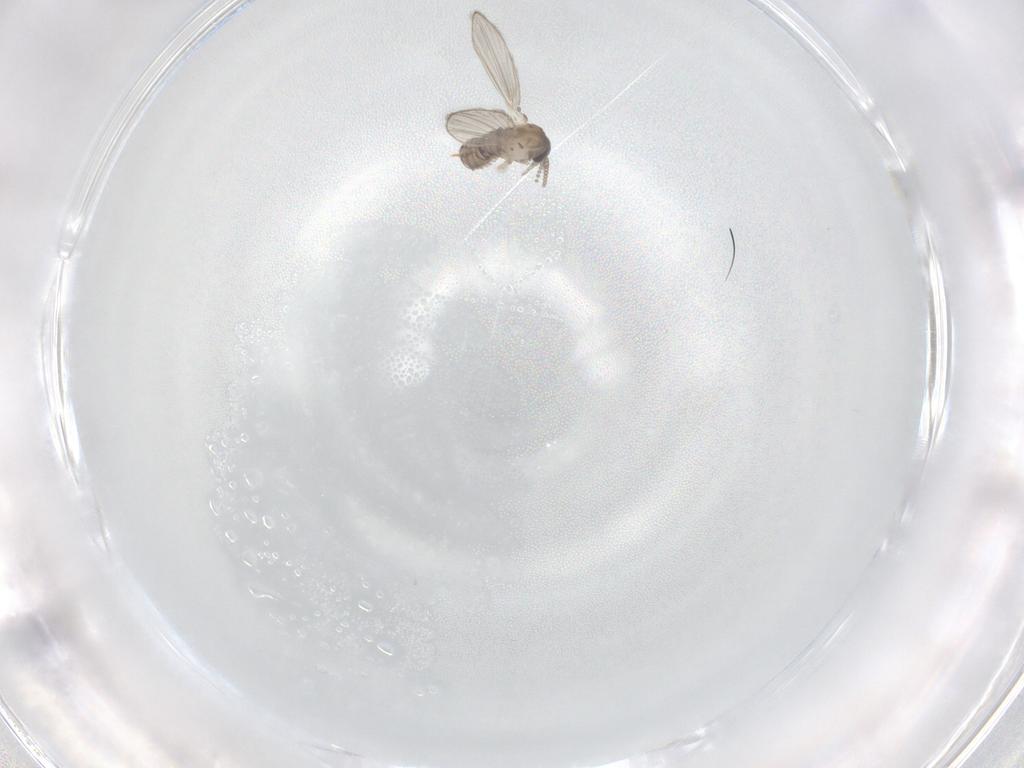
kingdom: Animalia
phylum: Arthropoda
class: Insecta
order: Diptera
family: Psychodidae
